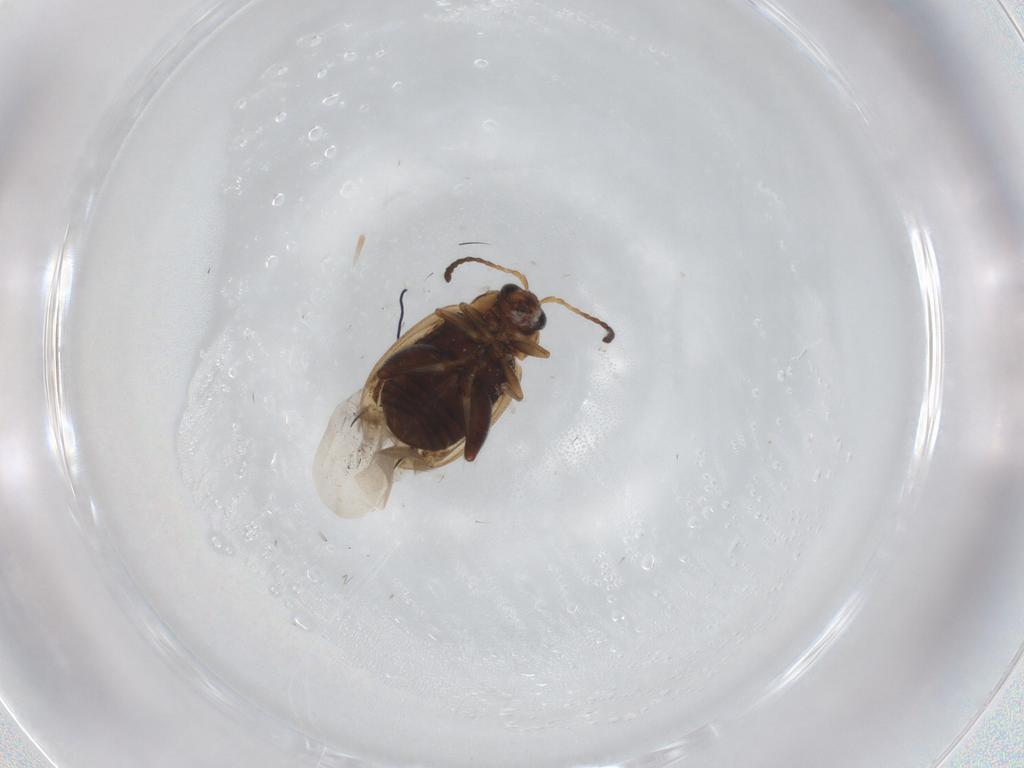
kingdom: Animalia
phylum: Arthropoda
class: Insecta
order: Coleoptera
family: Chrysomelidae
